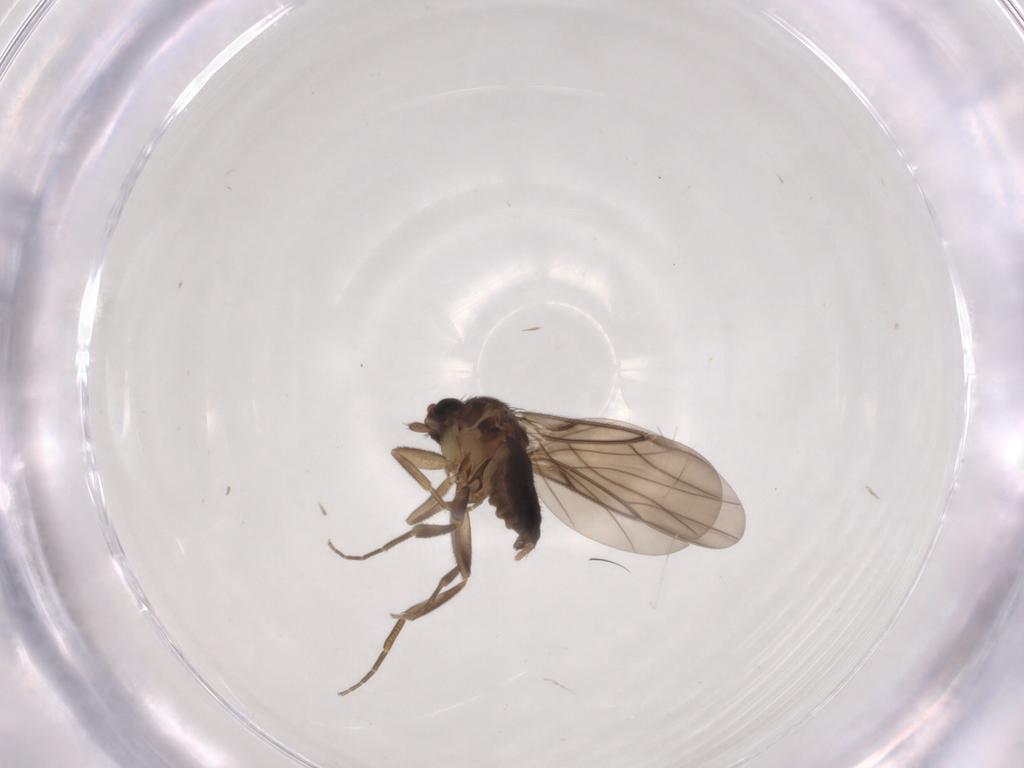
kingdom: Animalia
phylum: Arthropoda
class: Insecta
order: Diptera
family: Phoridae
